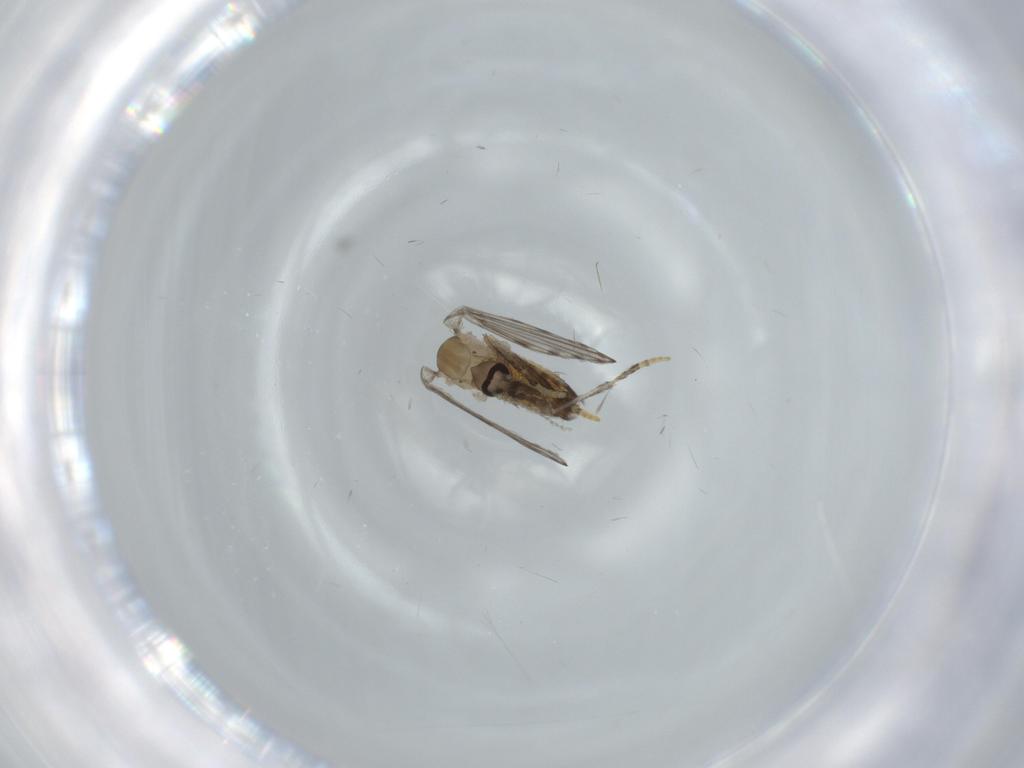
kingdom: Animalia
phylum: Arthropoda
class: Insecta
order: Diptera
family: Psychodidae
